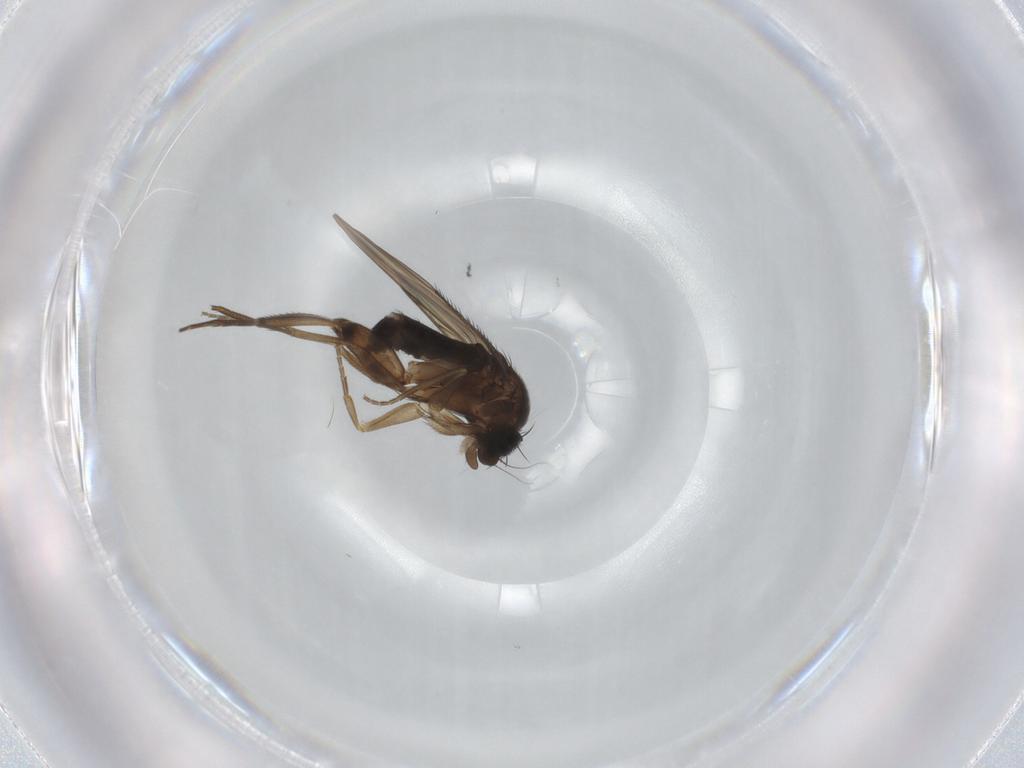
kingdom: Animalia
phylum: Arthropoda
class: Insecta
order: Diptera
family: Phoridae
